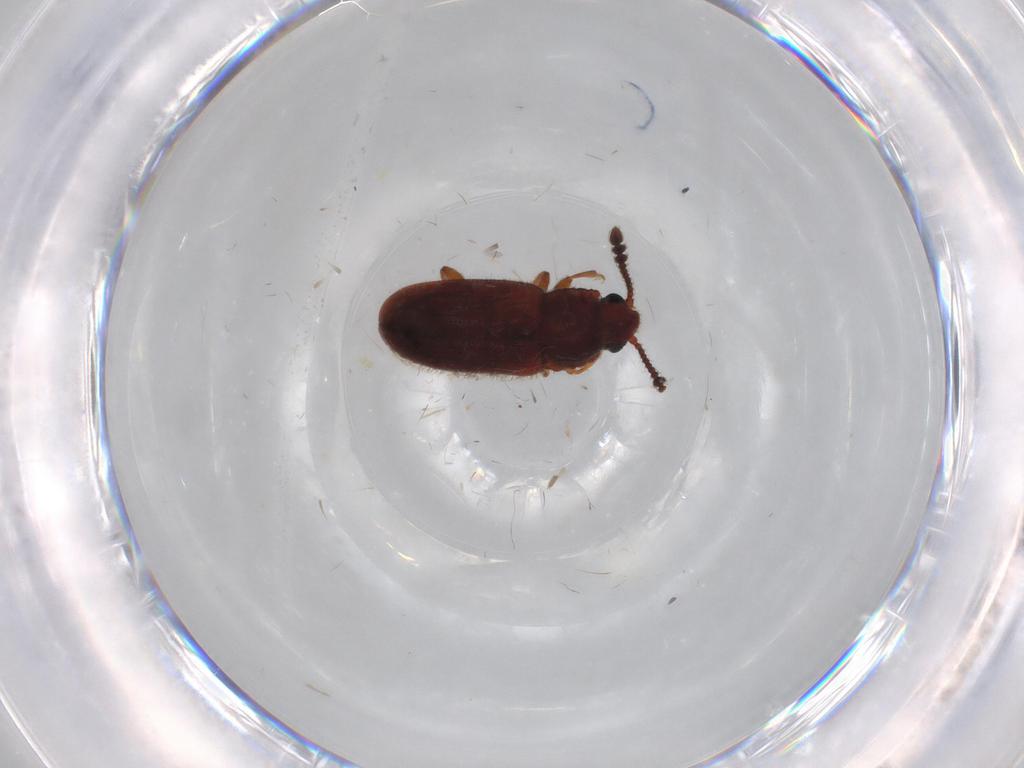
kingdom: Animalia
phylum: Arthropoda
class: Insecta
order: Coleoptera
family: Erotylidae
